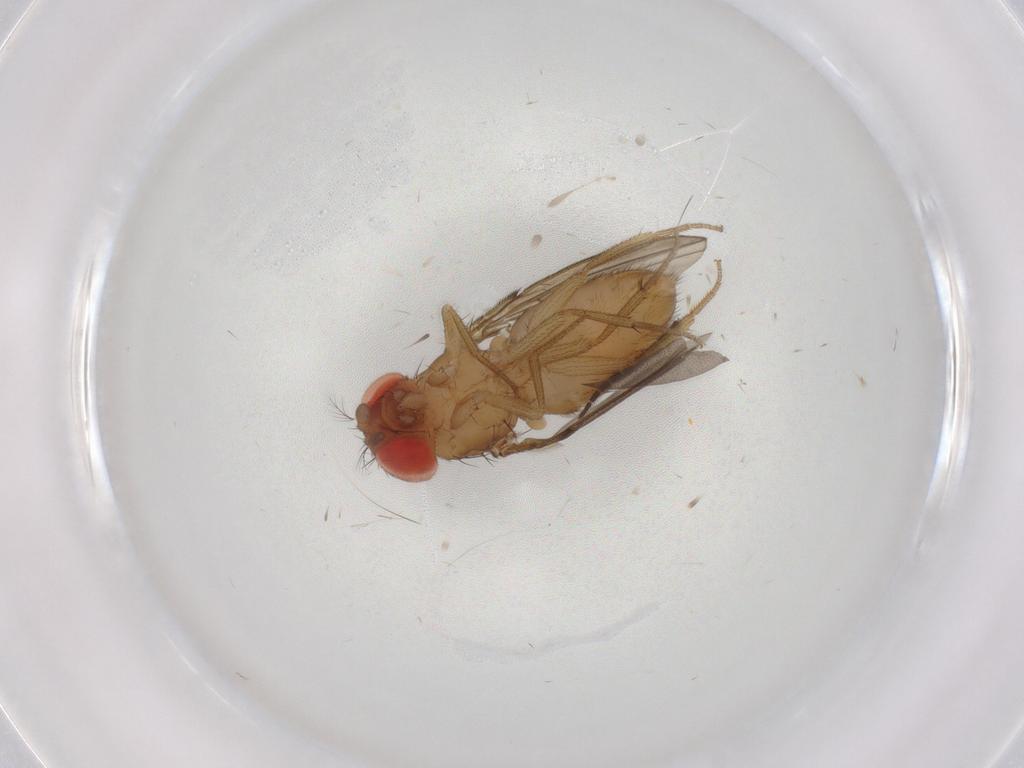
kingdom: Animalia
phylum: Arthropoda
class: Insecta
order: Diptera
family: Drosophilidae
